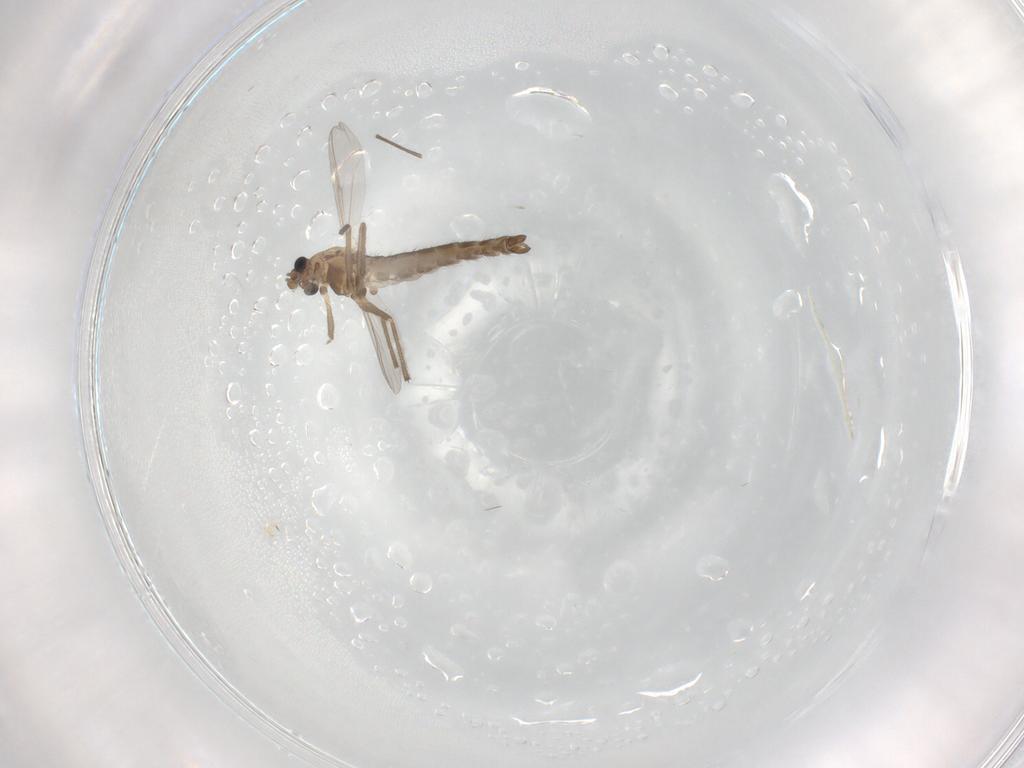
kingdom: Animalia
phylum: Arthropoda
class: Insecta
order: Diptera
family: Chironomidae
